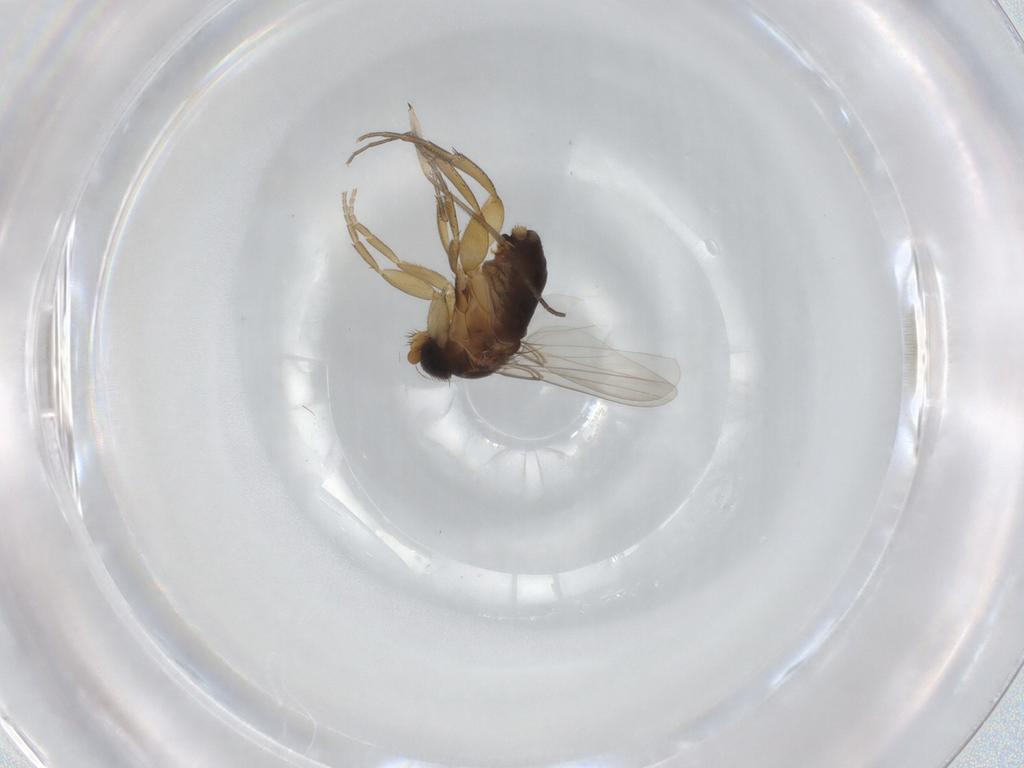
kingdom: Animalia
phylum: Arthropoda
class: Insecta
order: Diptera
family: Phoridae
